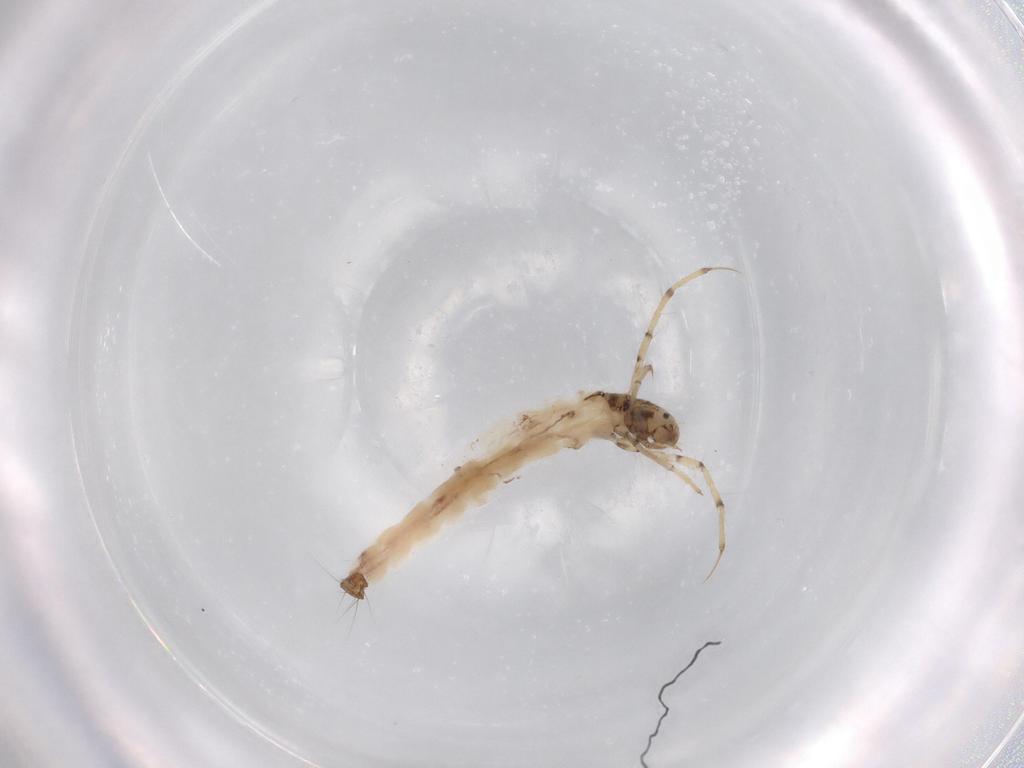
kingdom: Animalia
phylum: Arthropoda
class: Insecta
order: Trichoptera
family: Leptoceridae
